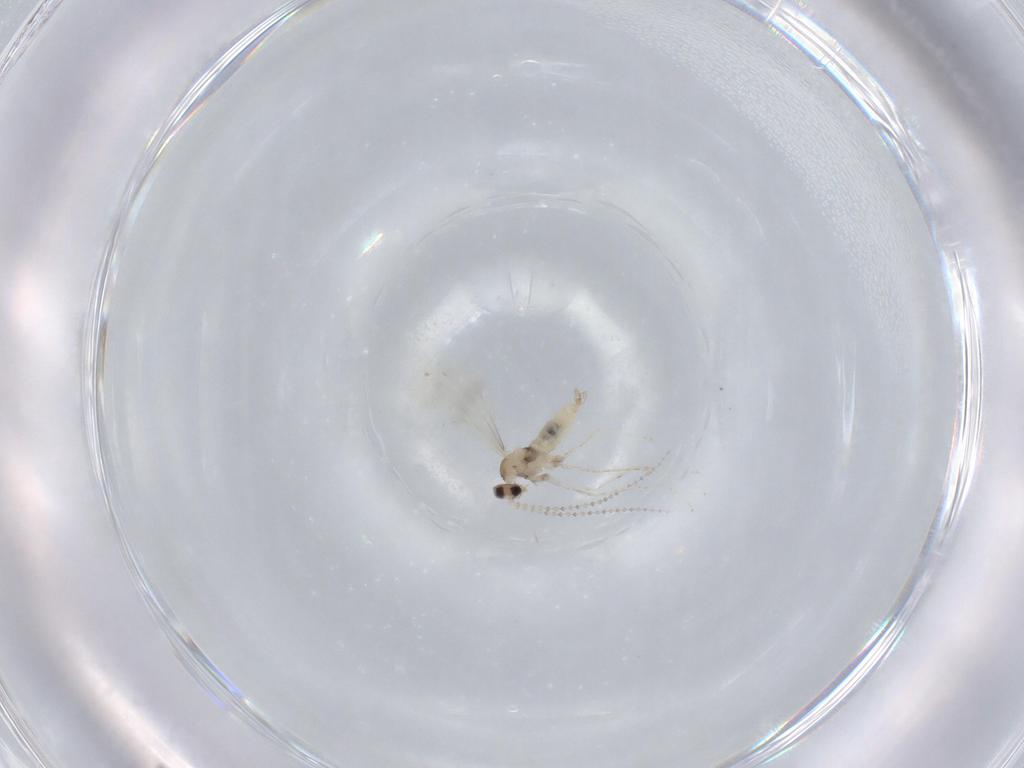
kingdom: Animalia
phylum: Arthropoda
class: Insecta
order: Diptera
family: Cecidomyiidae
